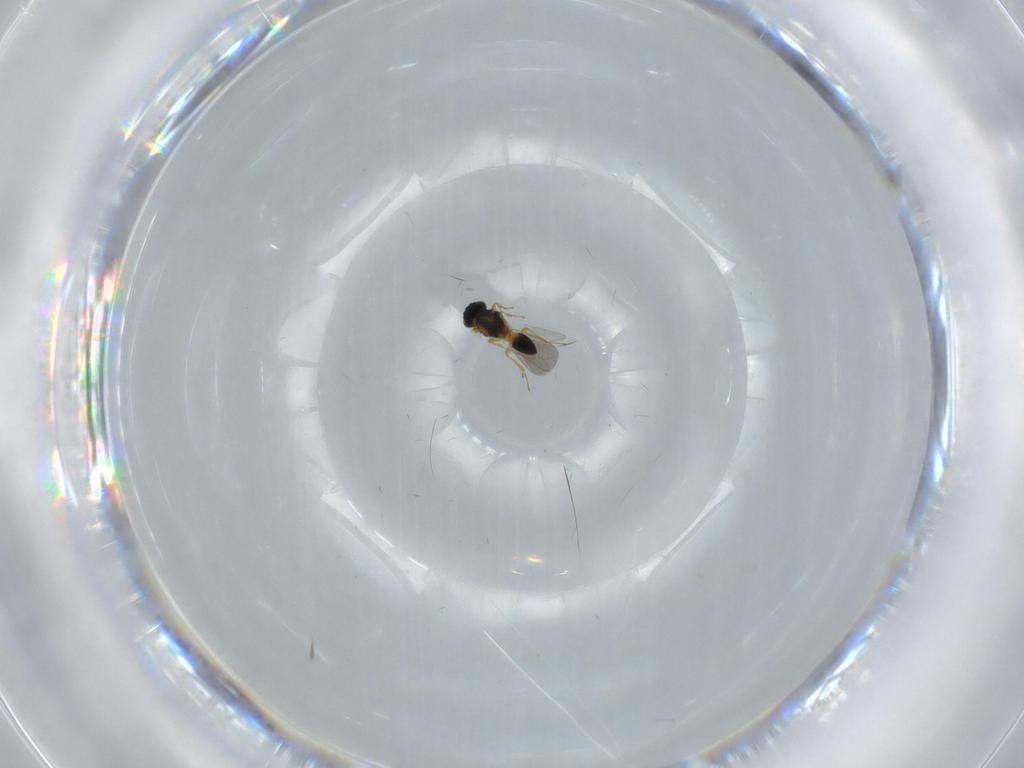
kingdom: Animalia
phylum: Arthropoda
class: Insecta
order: Hymenoptera
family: Platygastridae
